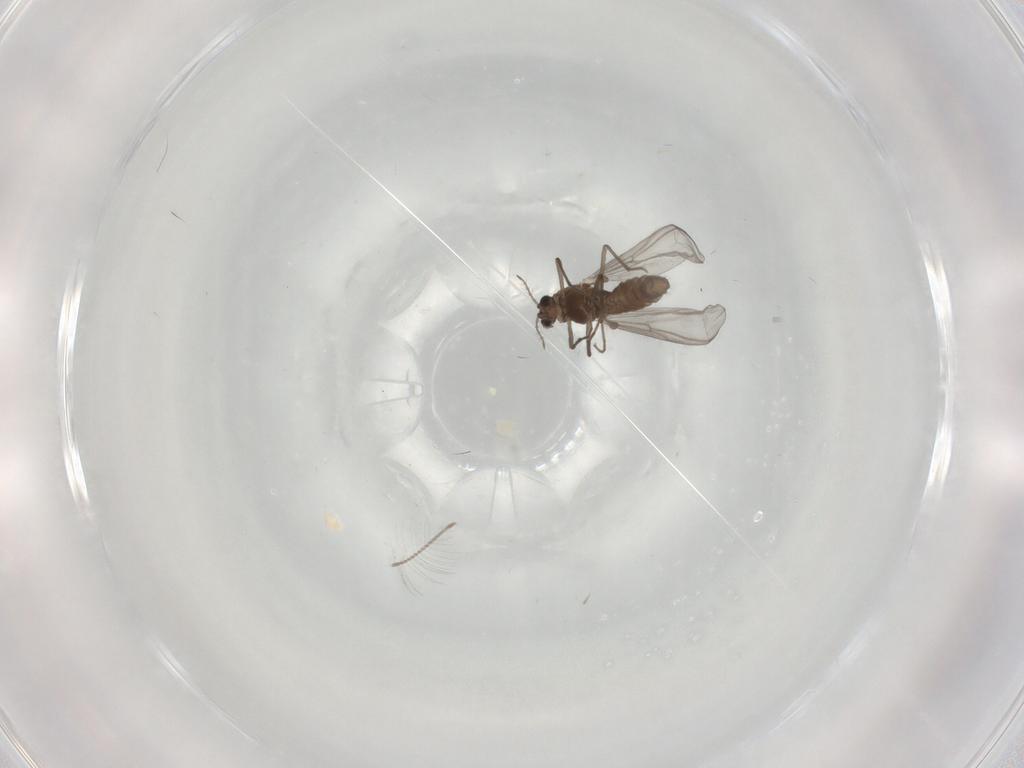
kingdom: Animalia
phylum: Arthropoda
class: Insecta
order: Diptera
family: Chironomidae
